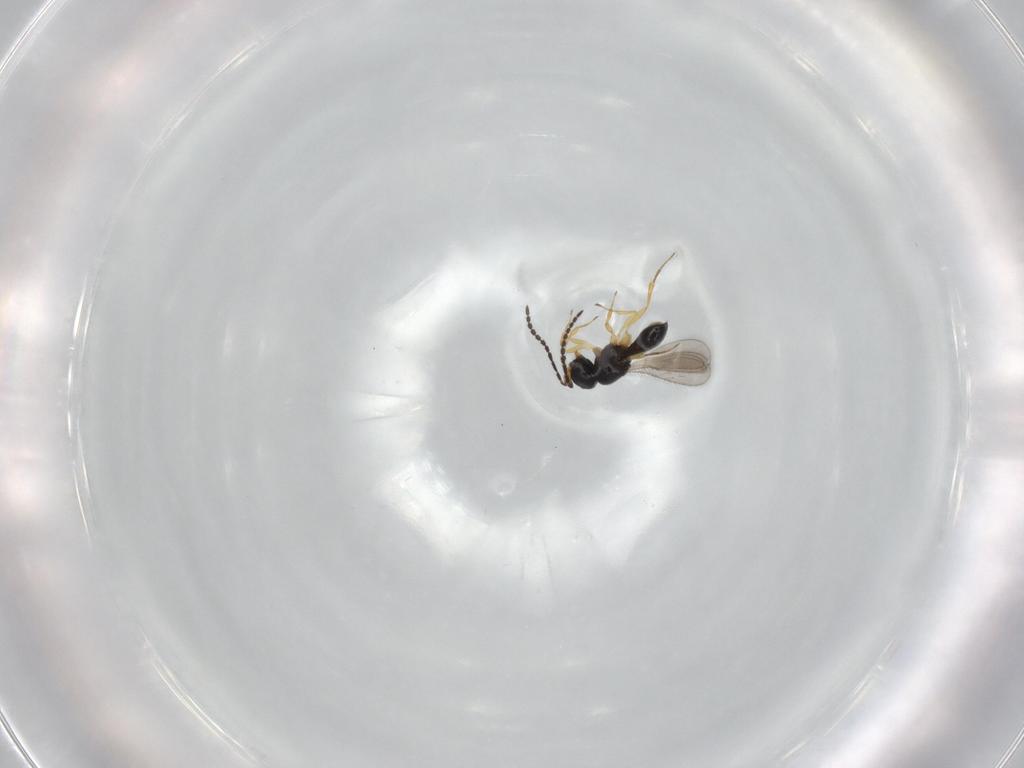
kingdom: Animalia
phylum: Arthropoda
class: Insecta
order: Hymenoptera
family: Scelionidae
